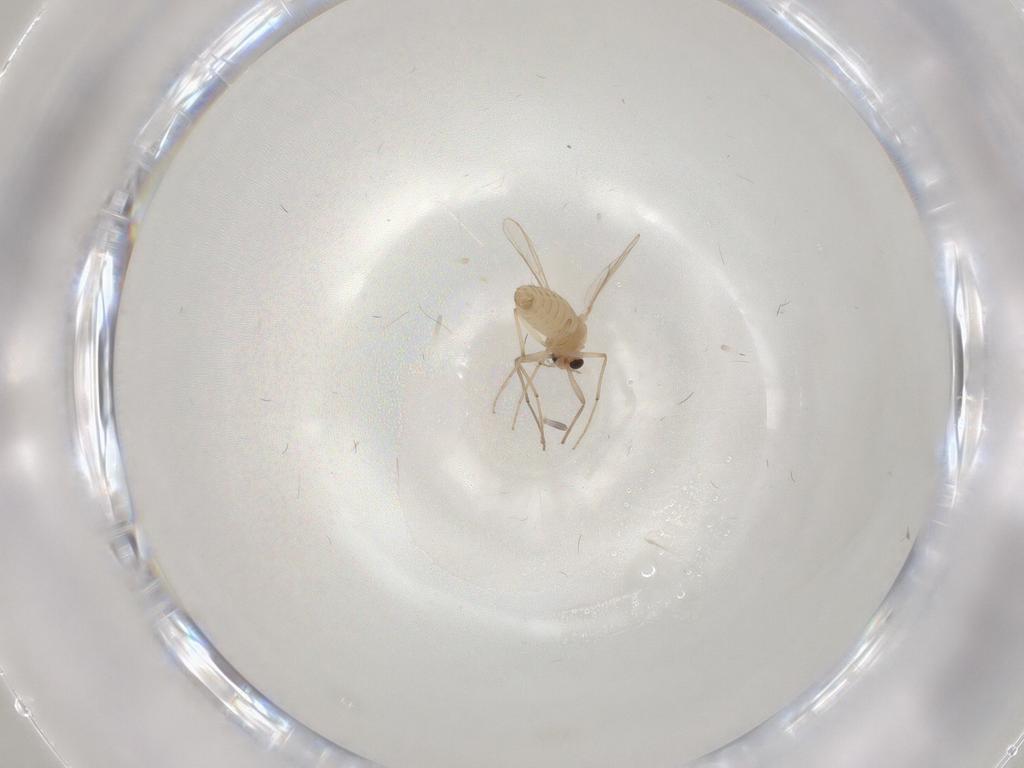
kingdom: Animalia
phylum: Arthropoda
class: Insecta
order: Diptera
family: Chironomidae
